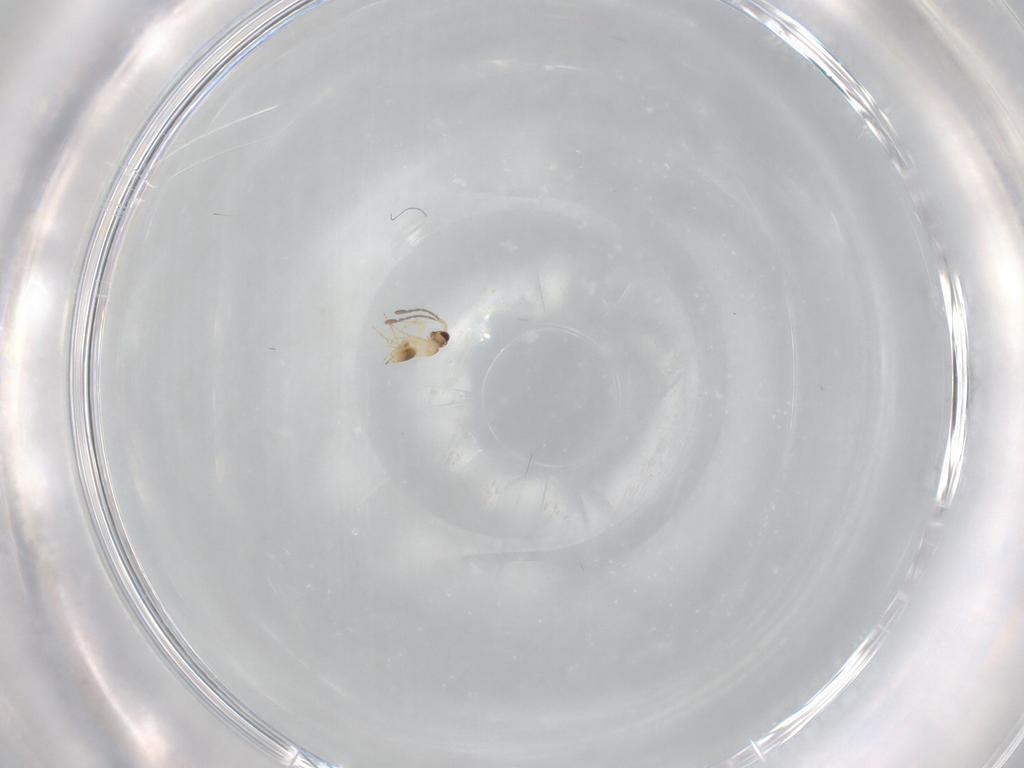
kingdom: Animalia
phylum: Arthropoda
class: Insecta
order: Hymenoptera
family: Mymaridae
